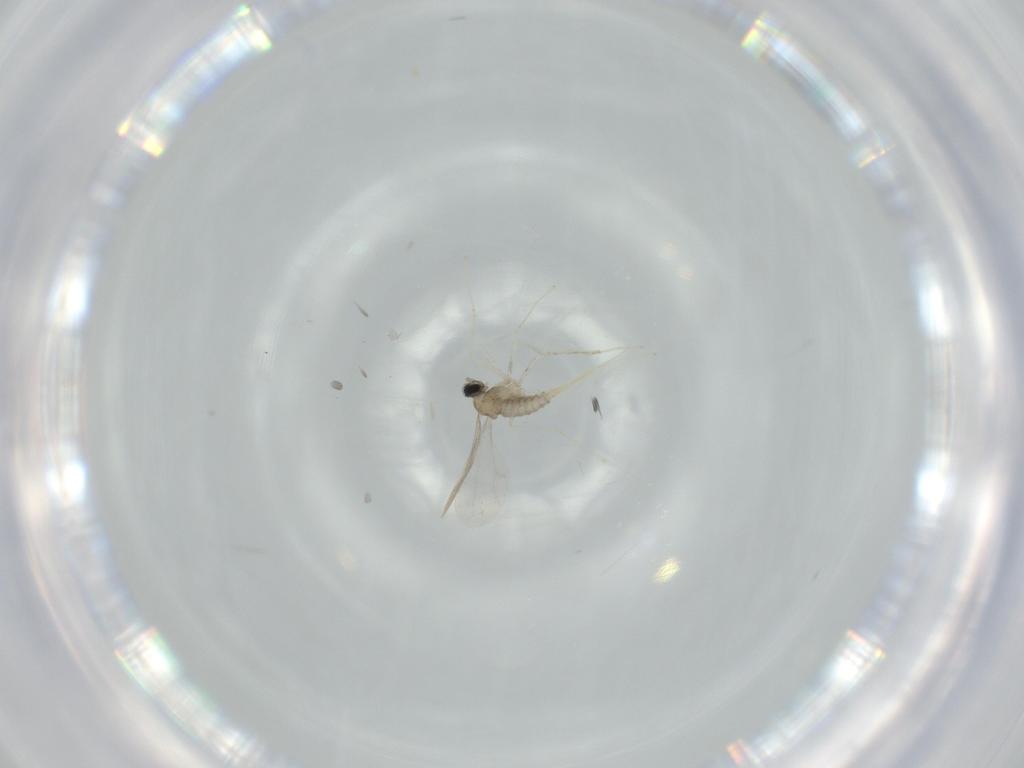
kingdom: Animalia
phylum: Arthropoda
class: Insecta
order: Diptera
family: Cecidomyiidae
